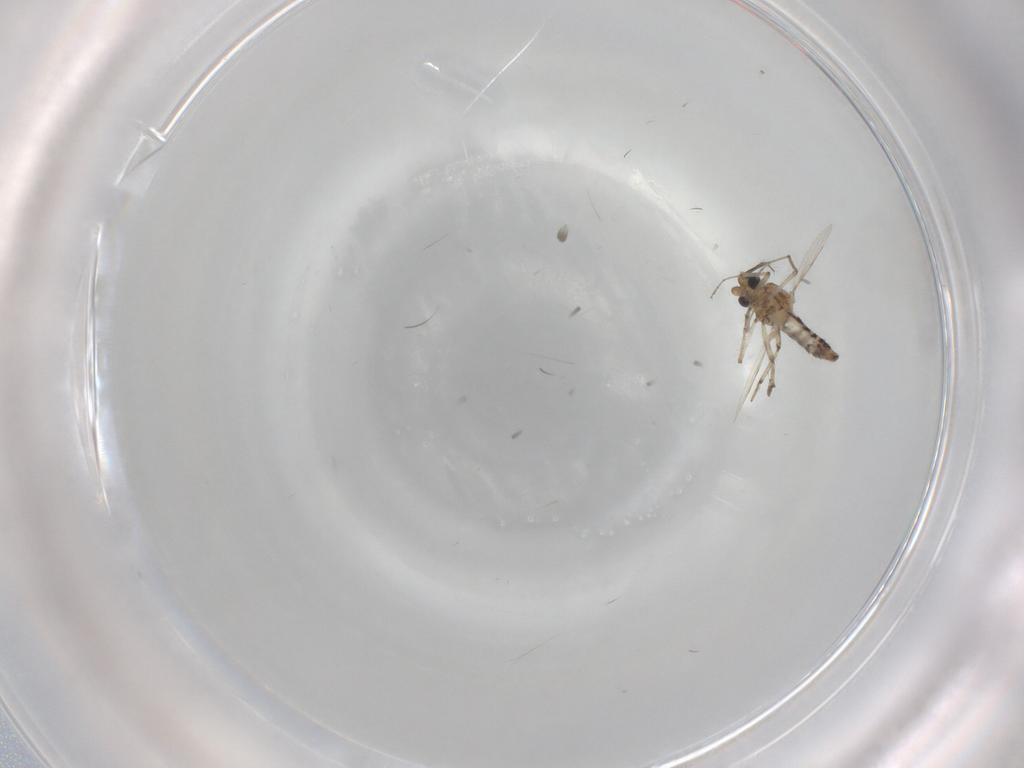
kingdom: Animalia
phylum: Arthropoda
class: Insecta
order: Diptera
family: Ceratopogonidae
